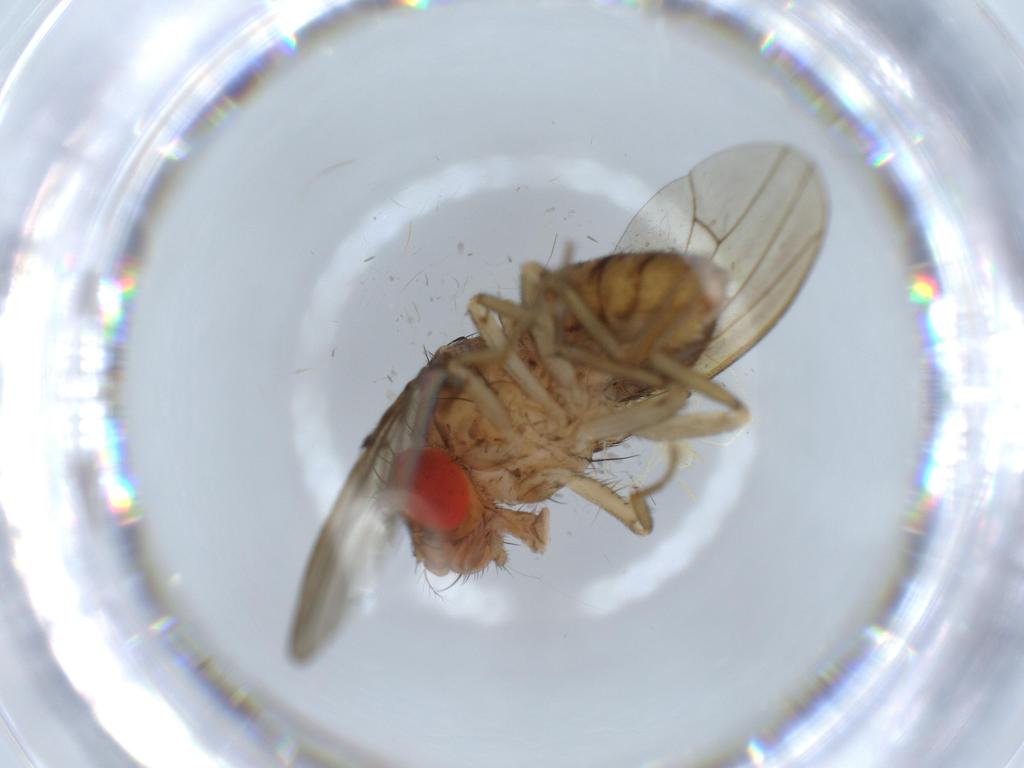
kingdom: Animalia
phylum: Arthropoda
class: Insecta
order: Diptera
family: Drosophilidae
